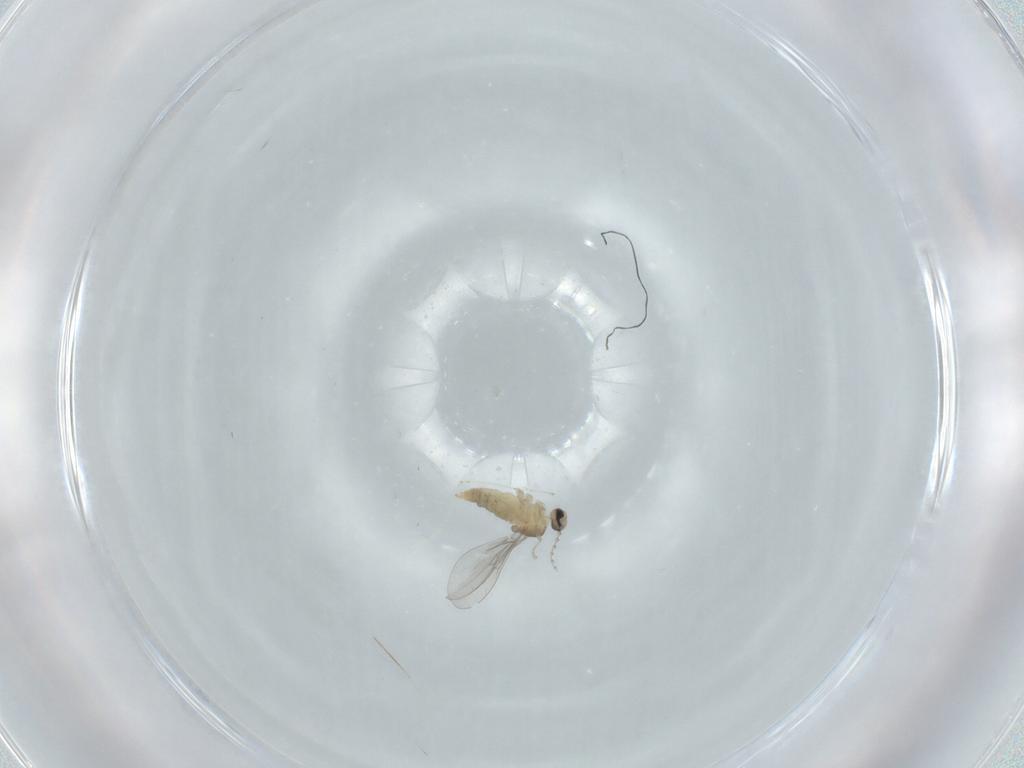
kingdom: Animalia
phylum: Arthropoda
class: Insecta
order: Diptera
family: Cecidomyiidae
